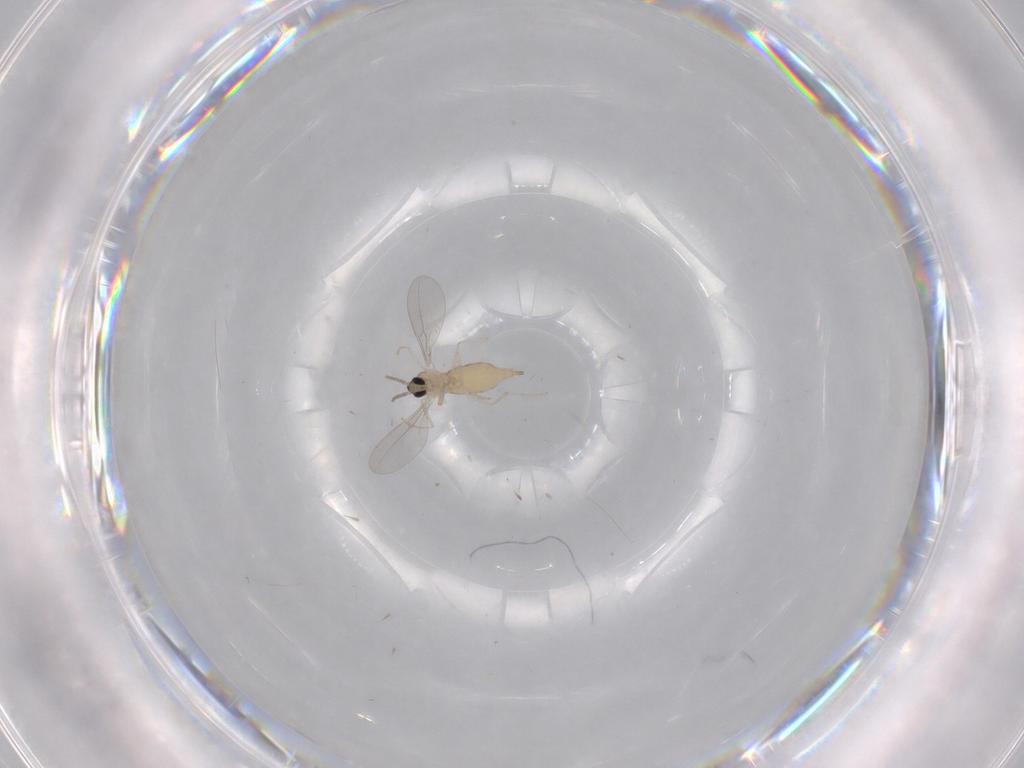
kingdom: Animalia
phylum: Arthropoda
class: Insecta
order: Diptera
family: Cecidomyiidae
